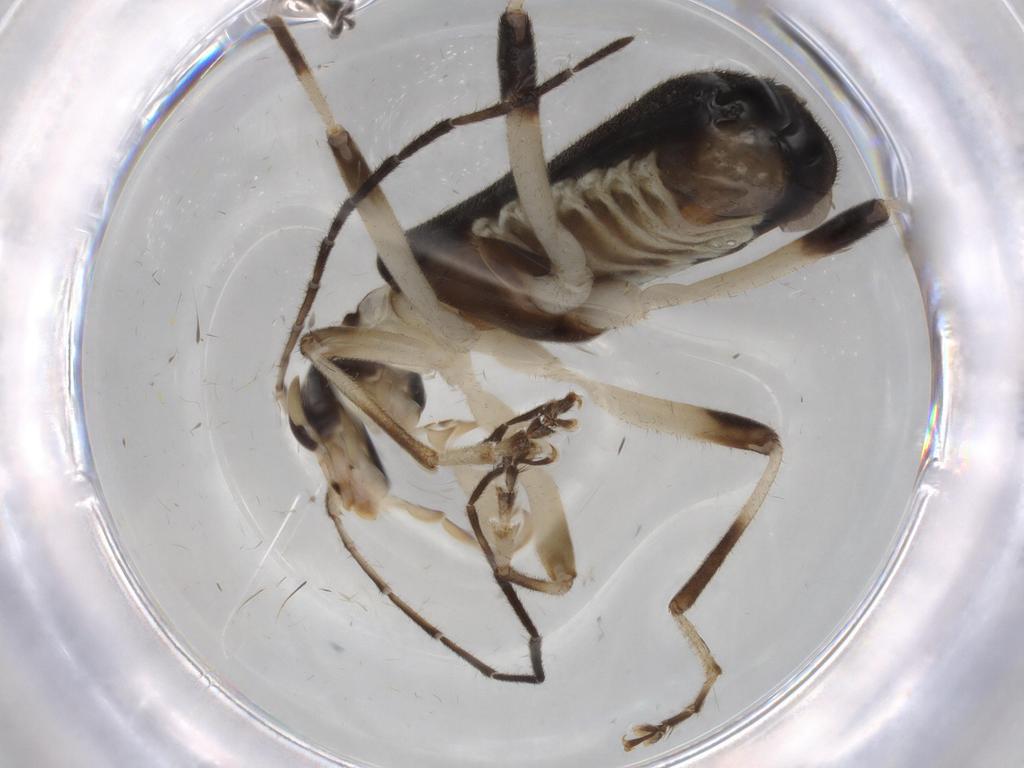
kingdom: Animalia
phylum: Arthropoda
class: Insecta
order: Coleoptera
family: Cantharidae
